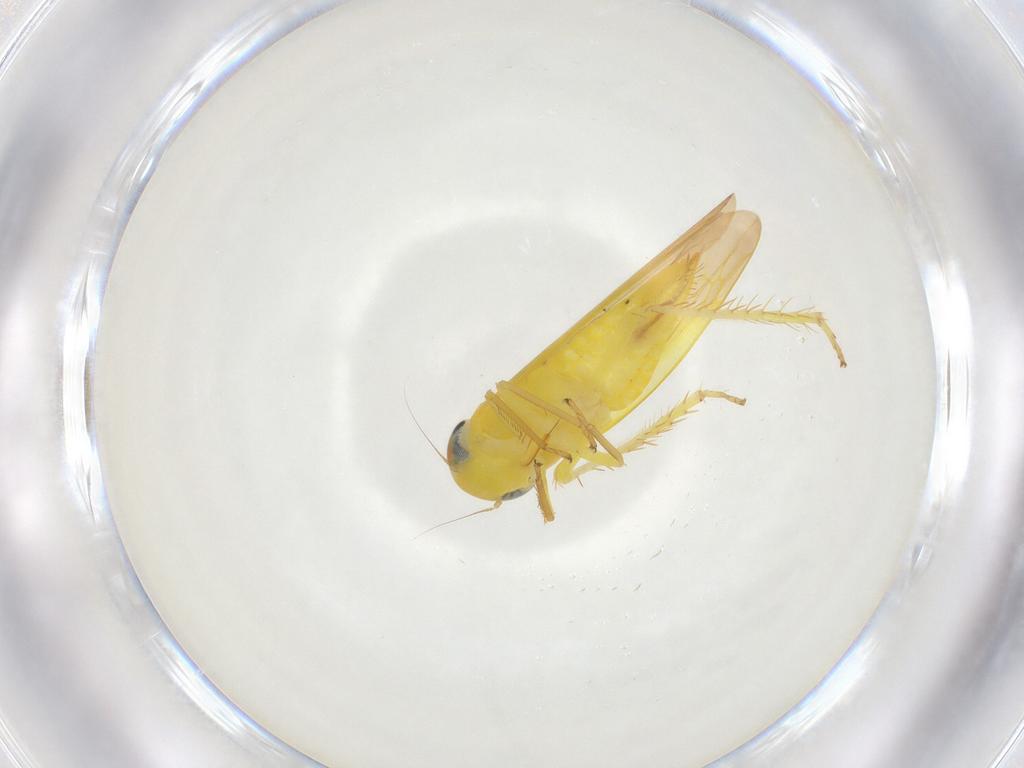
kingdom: Animalia
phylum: Arthropoda
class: Insecta
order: Hemiptera
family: Cicadellidae
